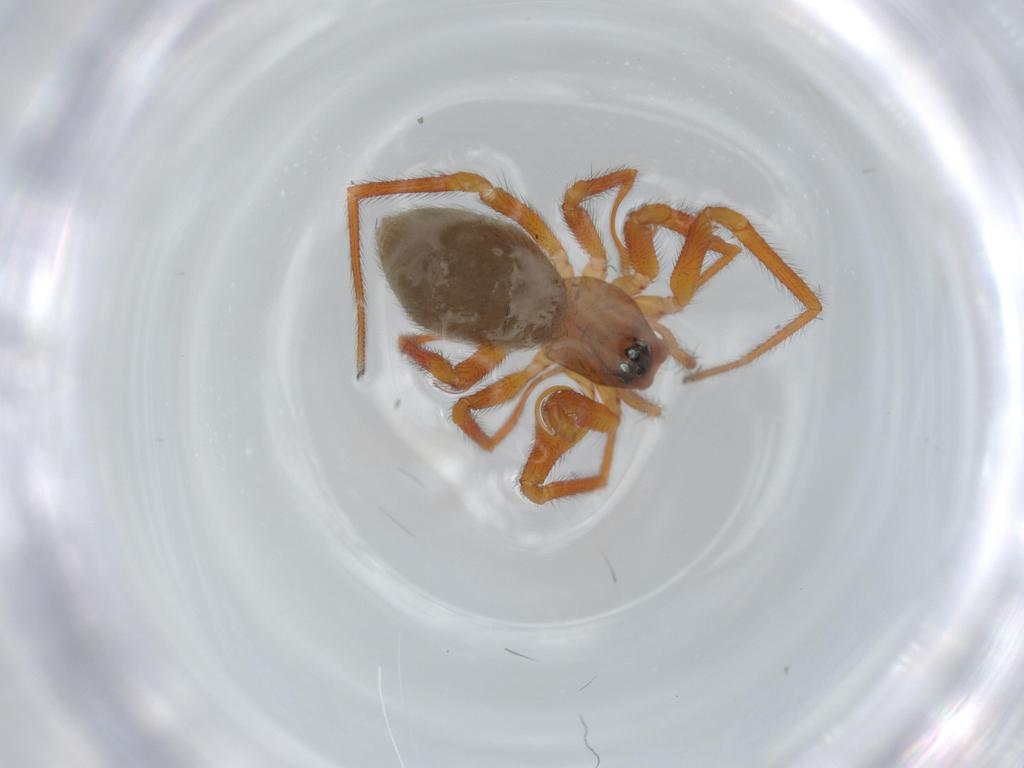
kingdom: Animalia
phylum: Arthropoda
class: Arachnida
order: Araneae
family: Linyphiidae
